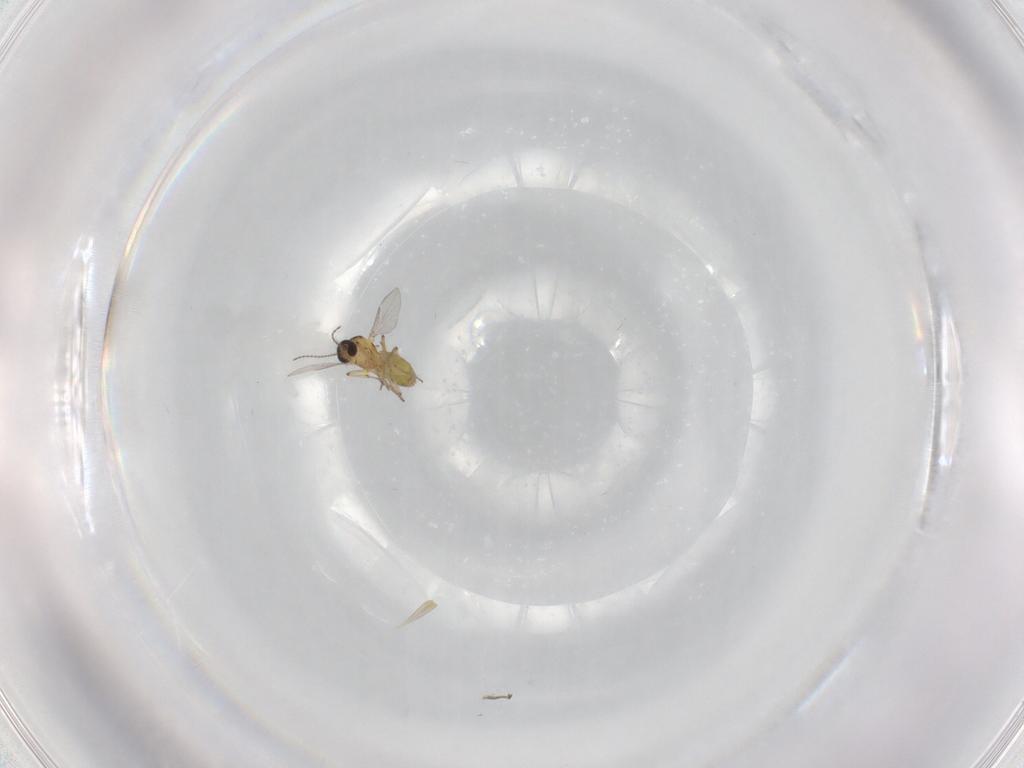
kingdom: Animalia
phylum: Arthropoda
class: Insecta
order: Diptera
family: Ceratopogonidae
